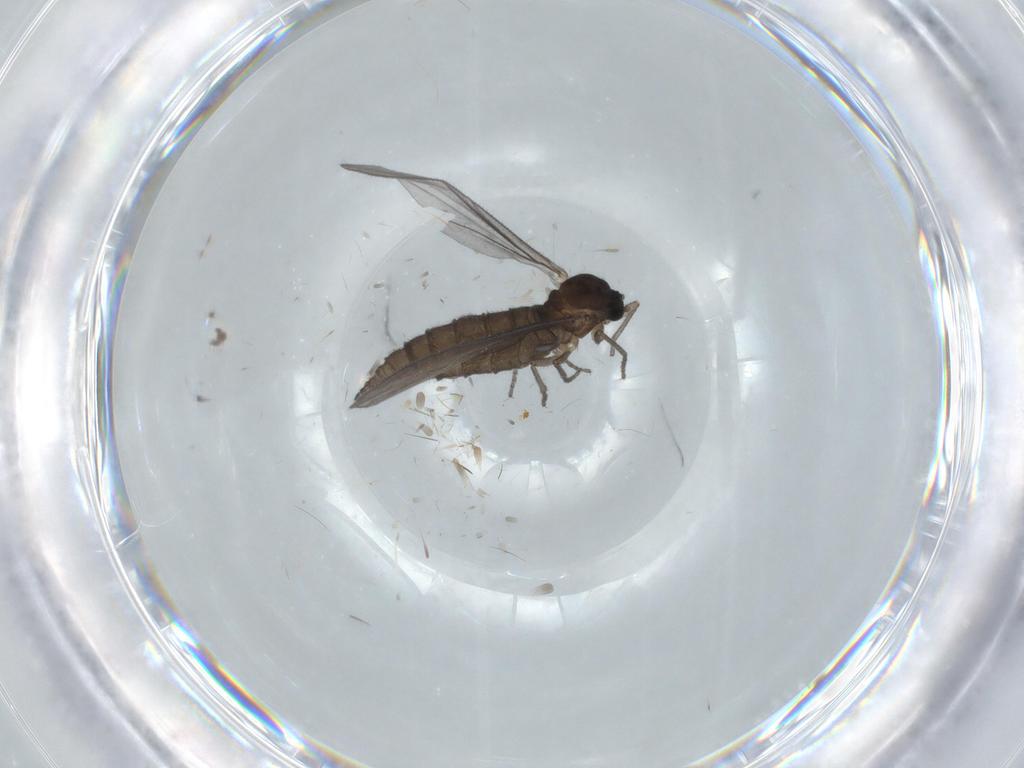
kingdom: Animalia
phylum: Arthropoda
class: Insecta
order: Diptera
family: Sciaridae
